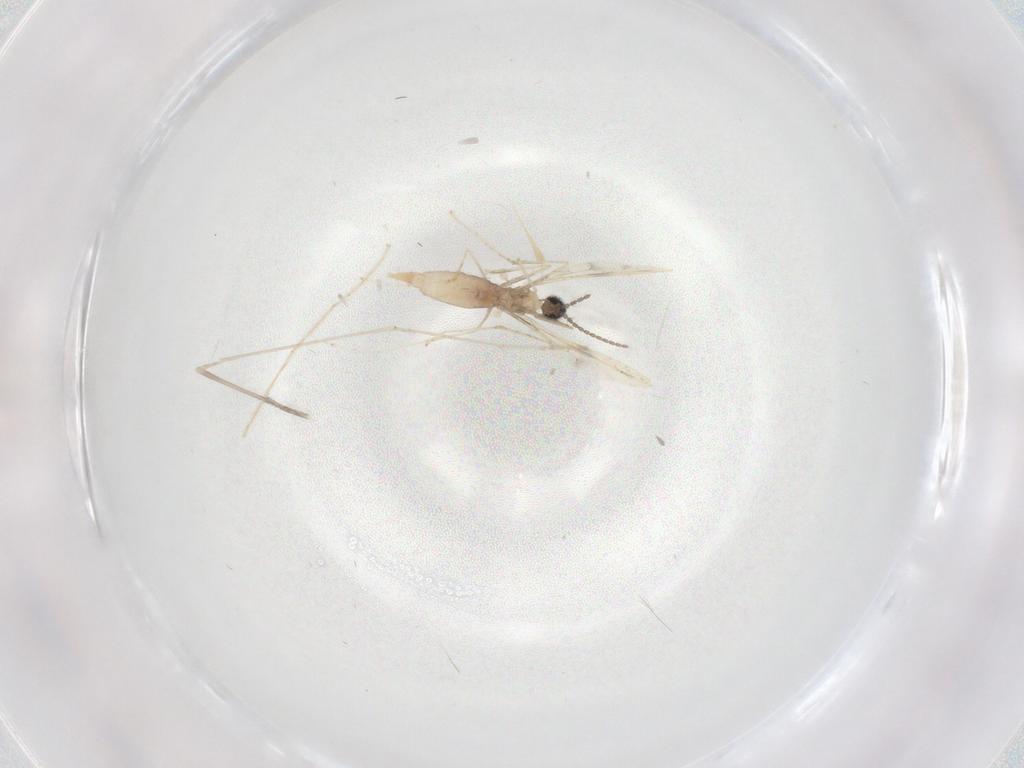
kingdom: Animalia
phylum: Arthropoda
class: Insecta
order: Diptera
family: Limoniidae
